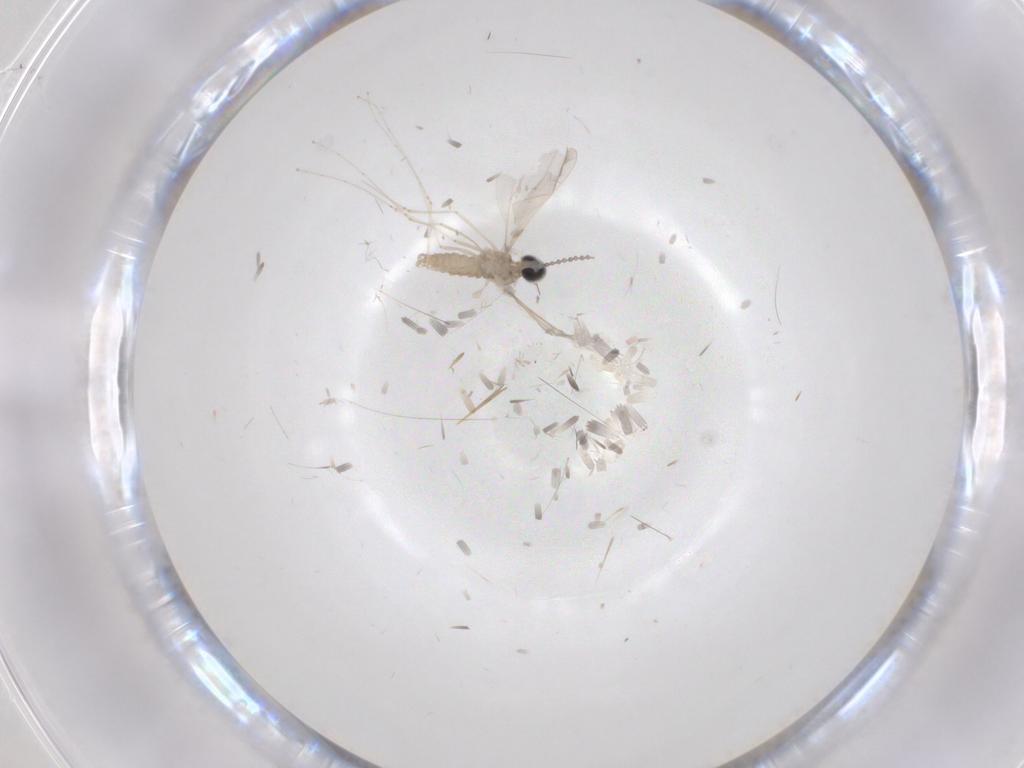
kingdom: Animalia
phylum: Arthropoda
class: Insecta
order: Diptera
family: Cecidomyiidae
